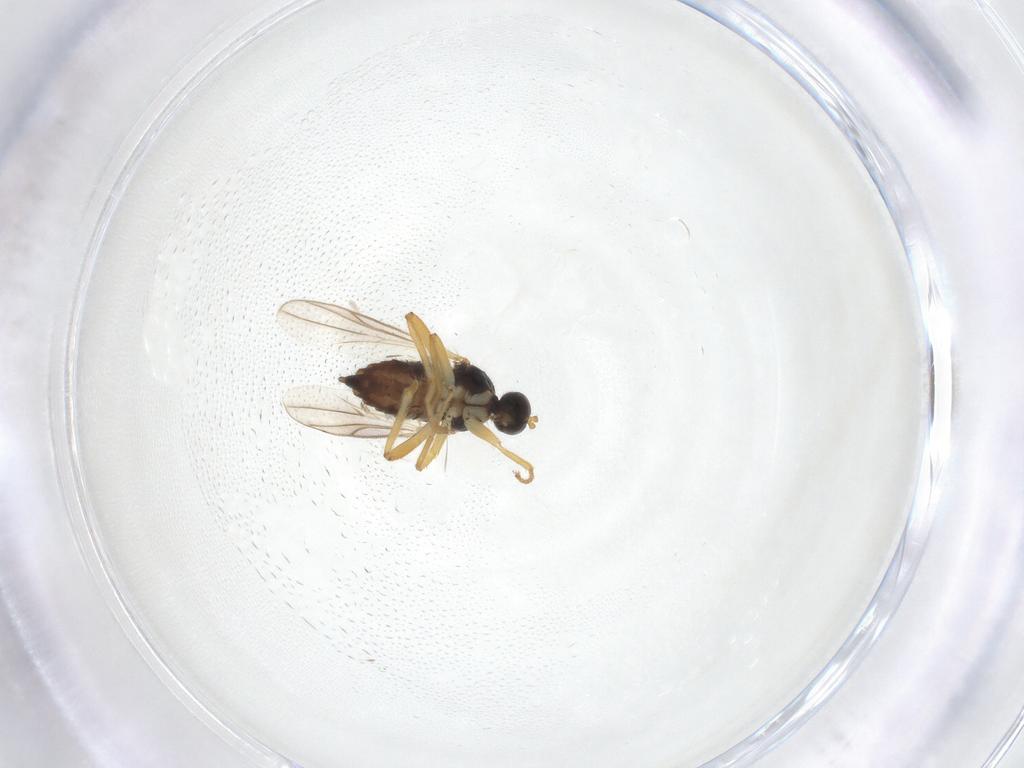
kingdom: Animalia
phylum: Arthropoda
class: Insecta
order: Diptera
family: Hybotidae
